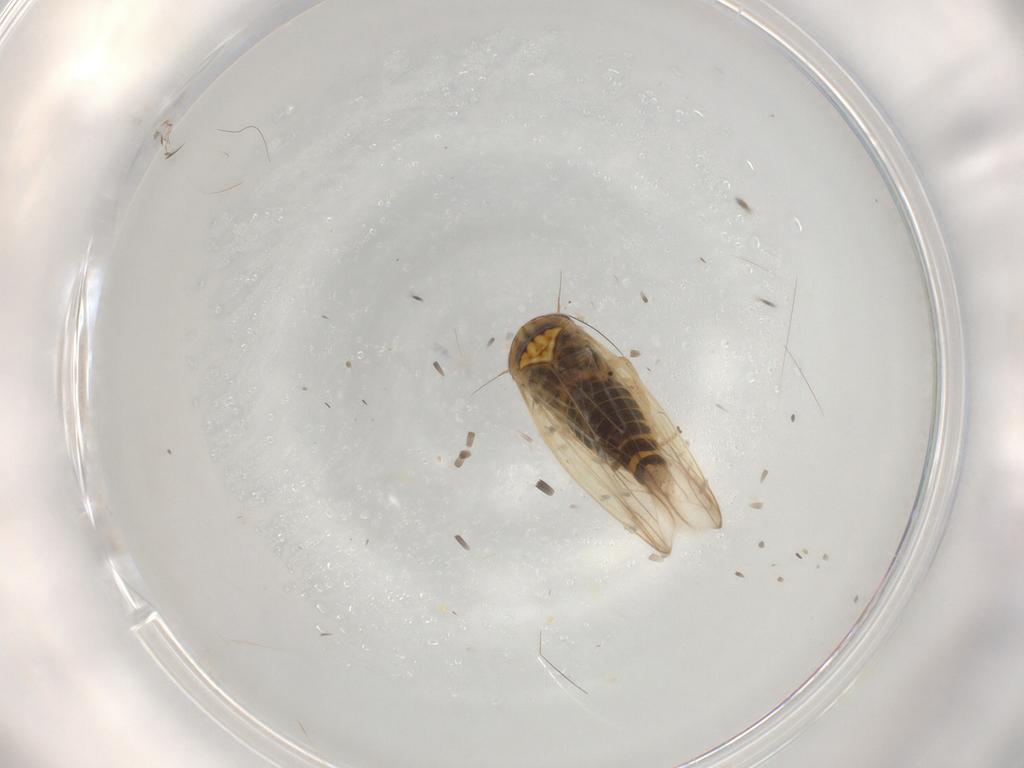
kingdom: Animalia
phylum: Arthropoda
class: Insecta
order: Hemiptera
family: Cicadellidae
